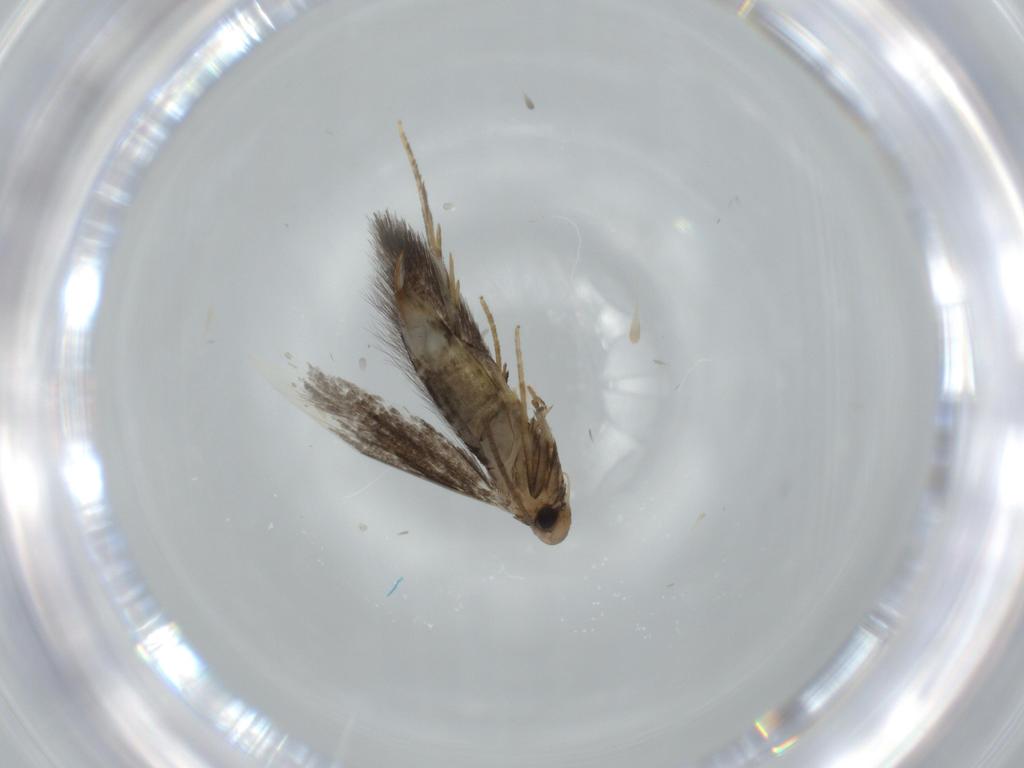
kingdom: Animalia
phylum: Arthropoda
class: Insecta
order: Lepidoptera
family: Heliozelidae
